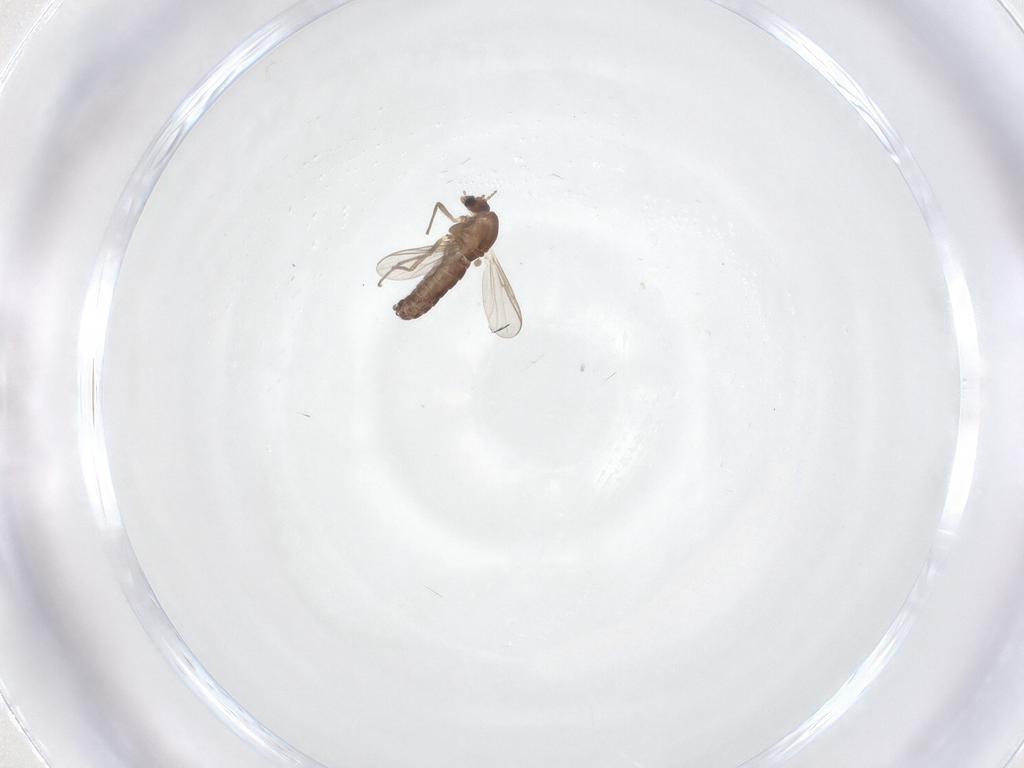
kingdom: Animalia
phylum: Arthropoda
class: Insecta
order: Diptera
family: Chironomidae
